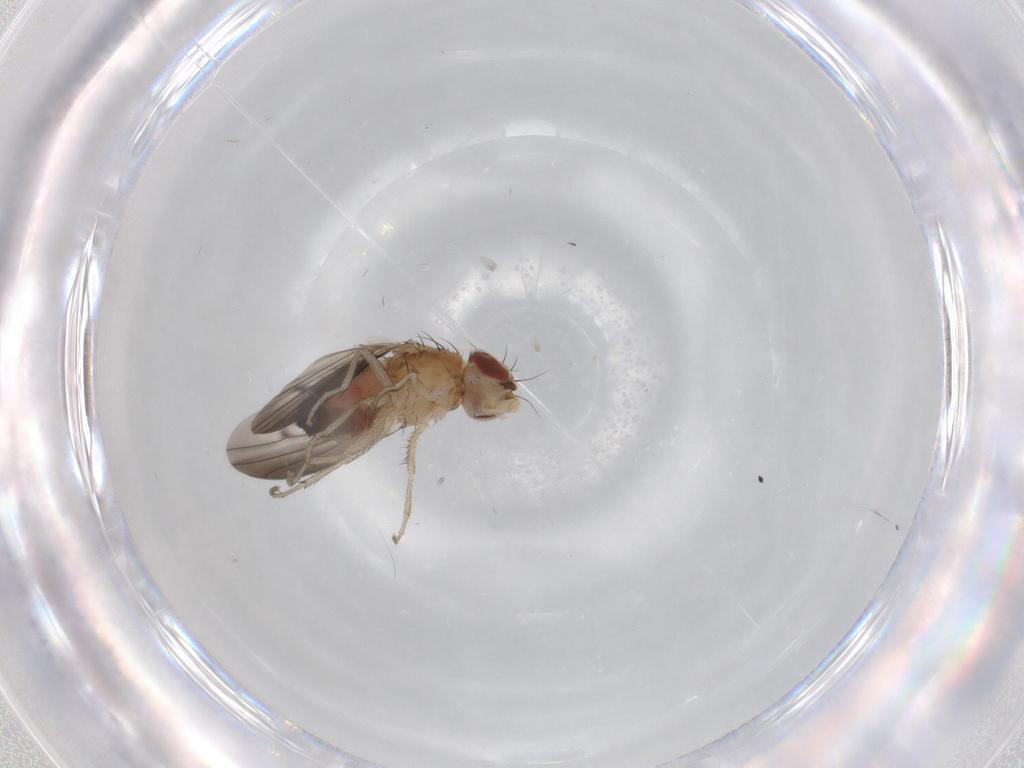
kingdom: Animalia
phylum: Arthropoda
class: Insecta
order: Diptera
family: Heleomyzidae
